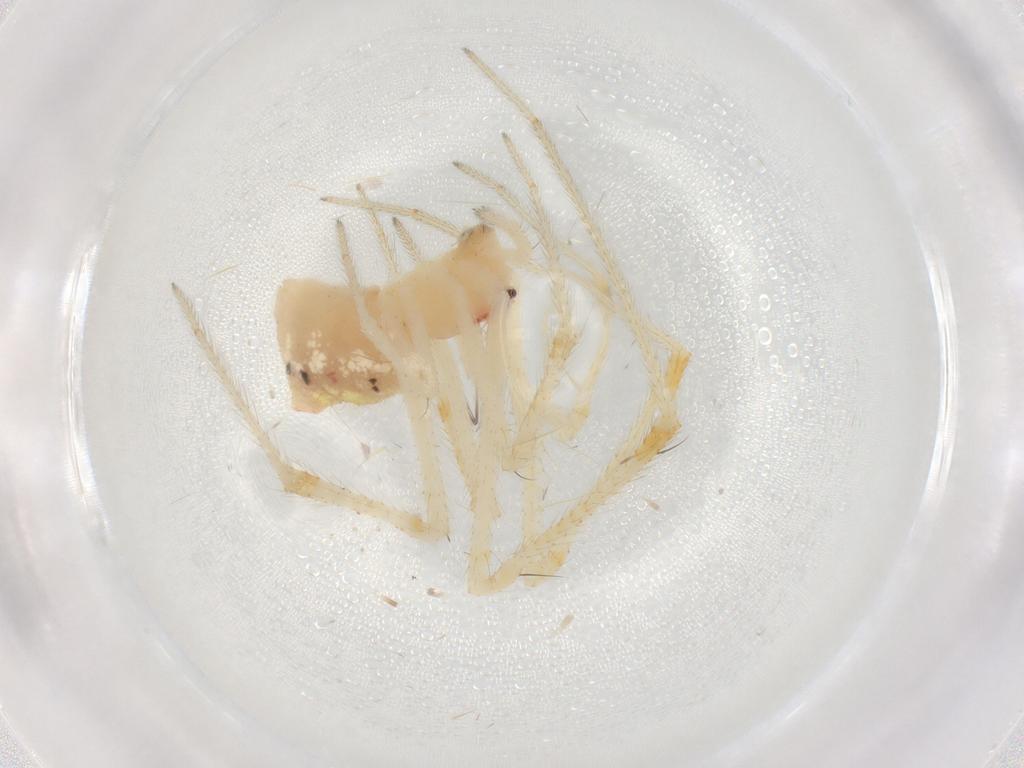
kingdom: Animalia
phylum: Arthropoda
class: Arachnida
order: Araneae
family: Theridiidae
